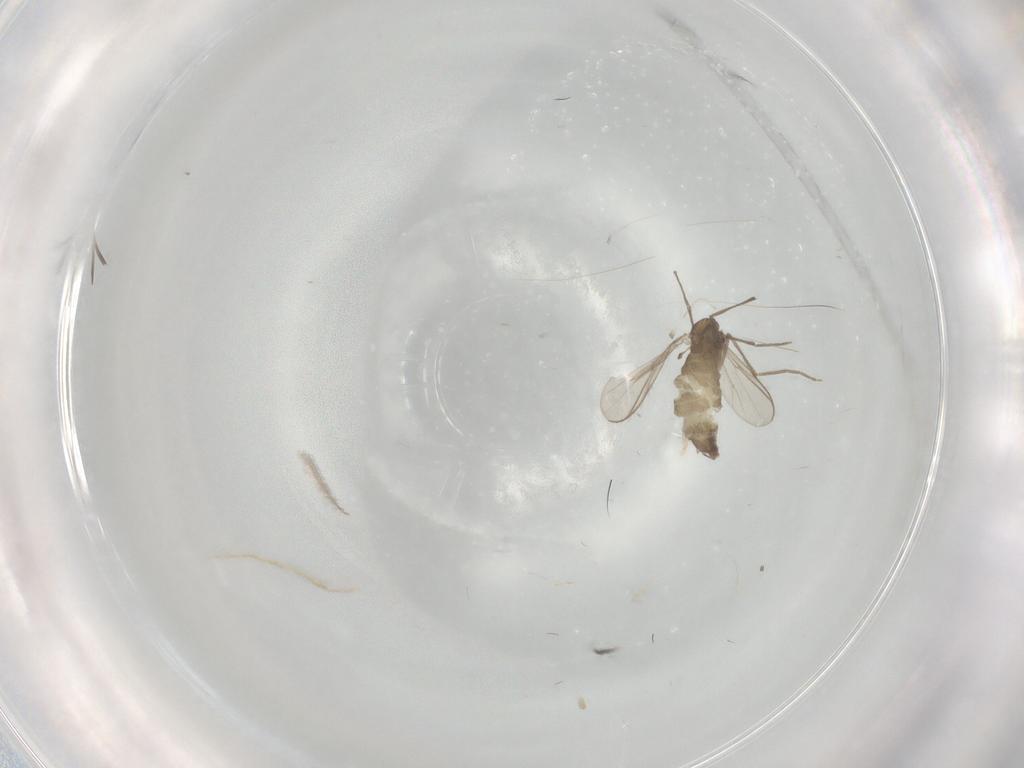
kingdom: Animalia
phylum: Arthropoda
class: Insecta
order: Diptera
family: Chironomidae
